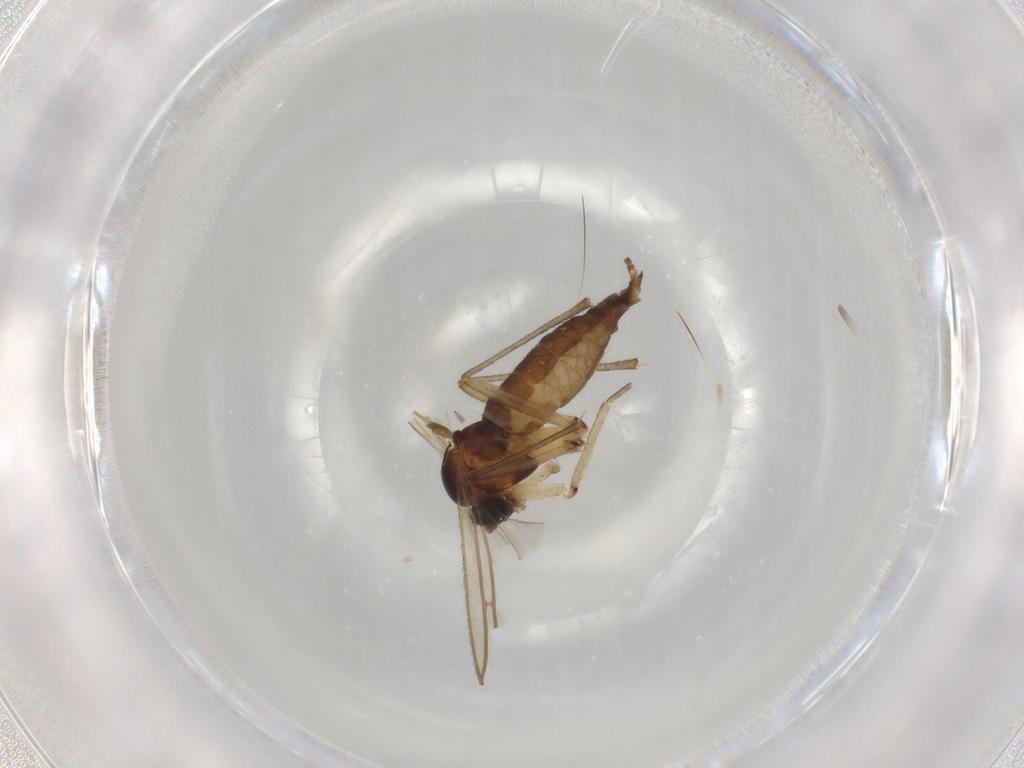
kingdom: Animalia
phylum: Arthropoda
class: Insecta
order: Diptera
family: Sciaridae
